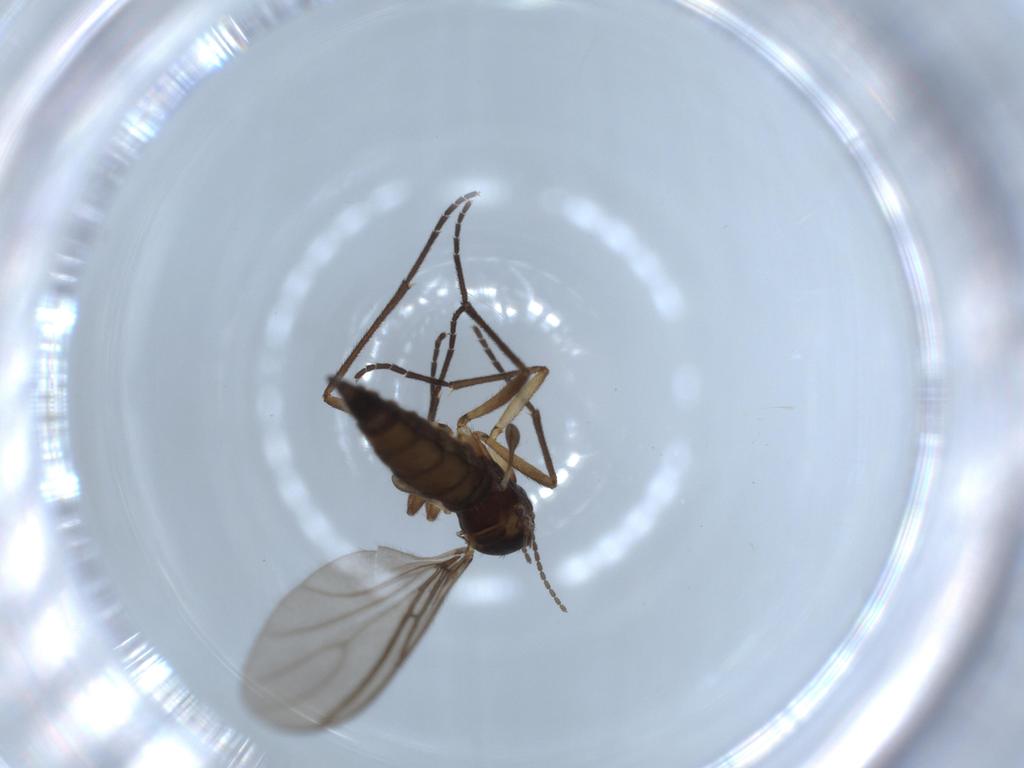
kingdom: Animalia
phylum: Arthropoda
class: Insecta
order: Diptera
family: Sciaridae
